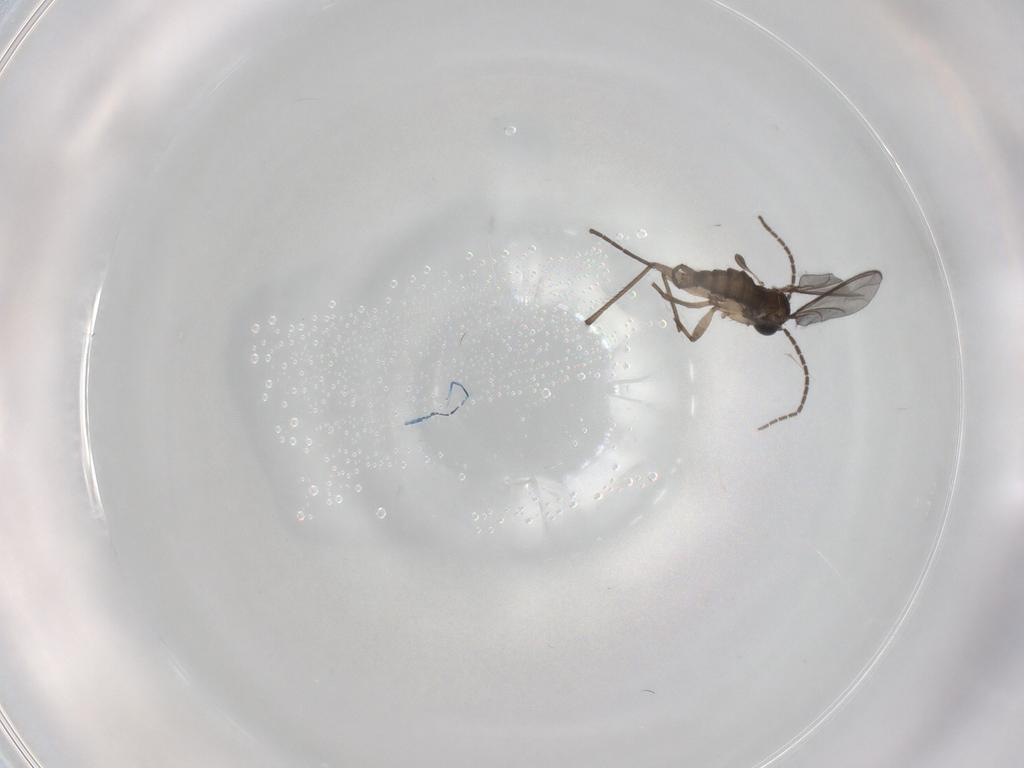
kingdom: Animalia
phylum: Arthropoda
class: Insecta
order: Diptera
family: Sciaridae
